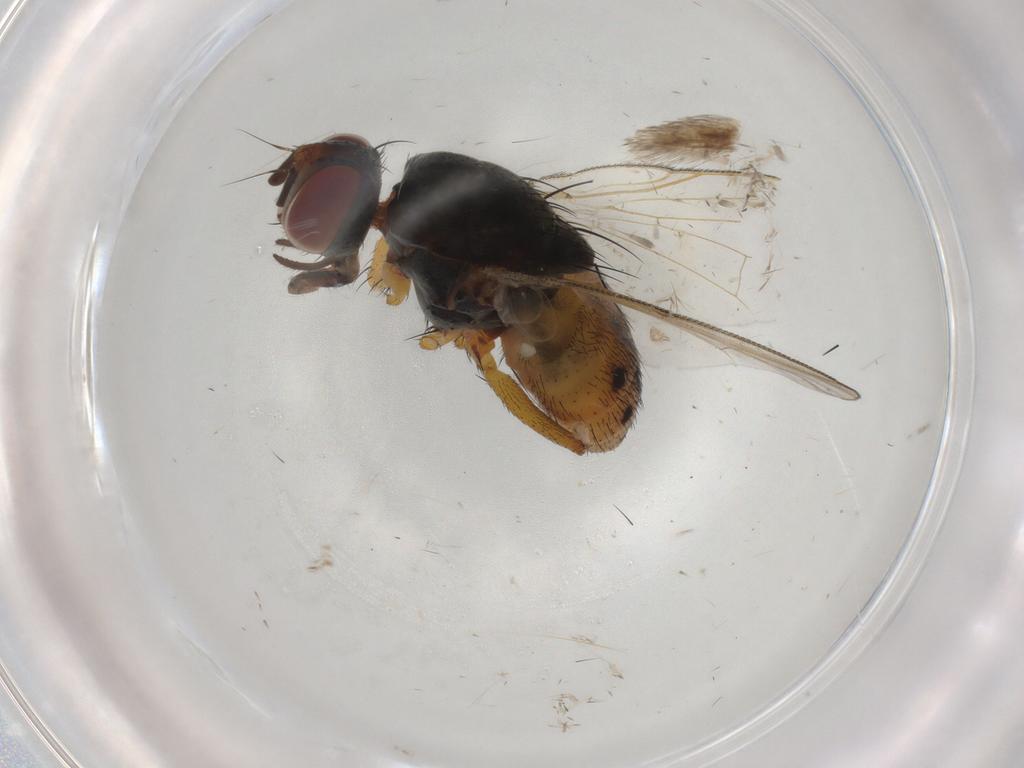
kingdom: Animalia
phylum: Arthropoda
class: Insecta
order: Diptera
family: Muscidae
